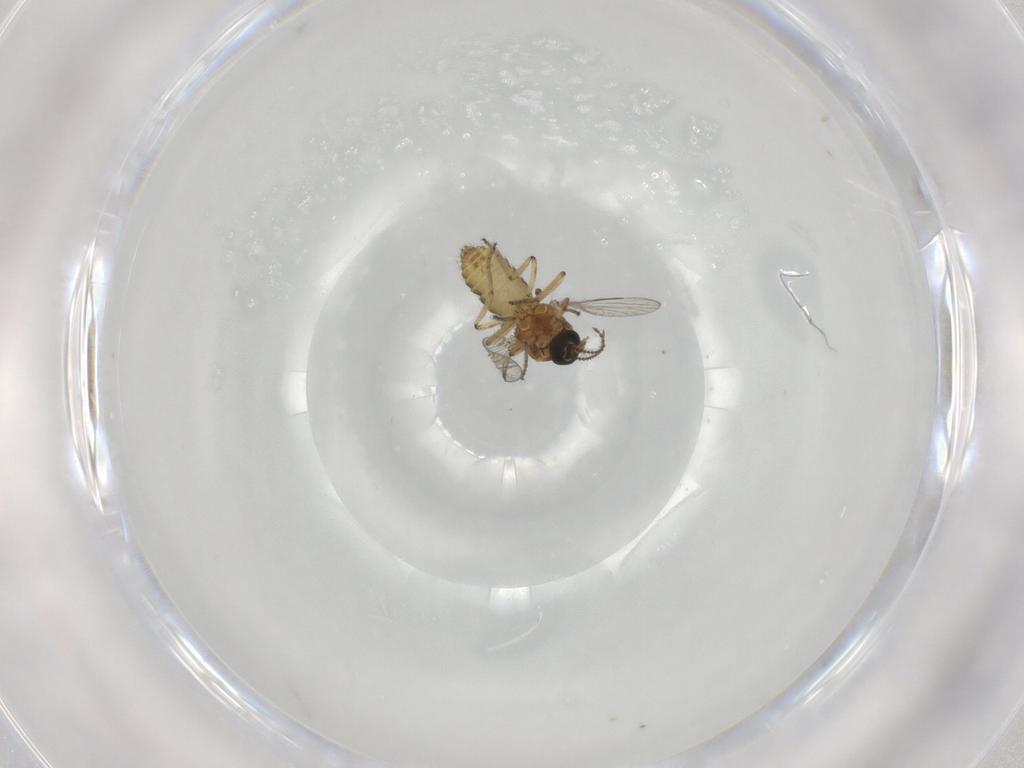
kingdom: Animalia
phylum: Arthropoda
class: Insecta
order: Diptera
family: Ceratopogonidae
